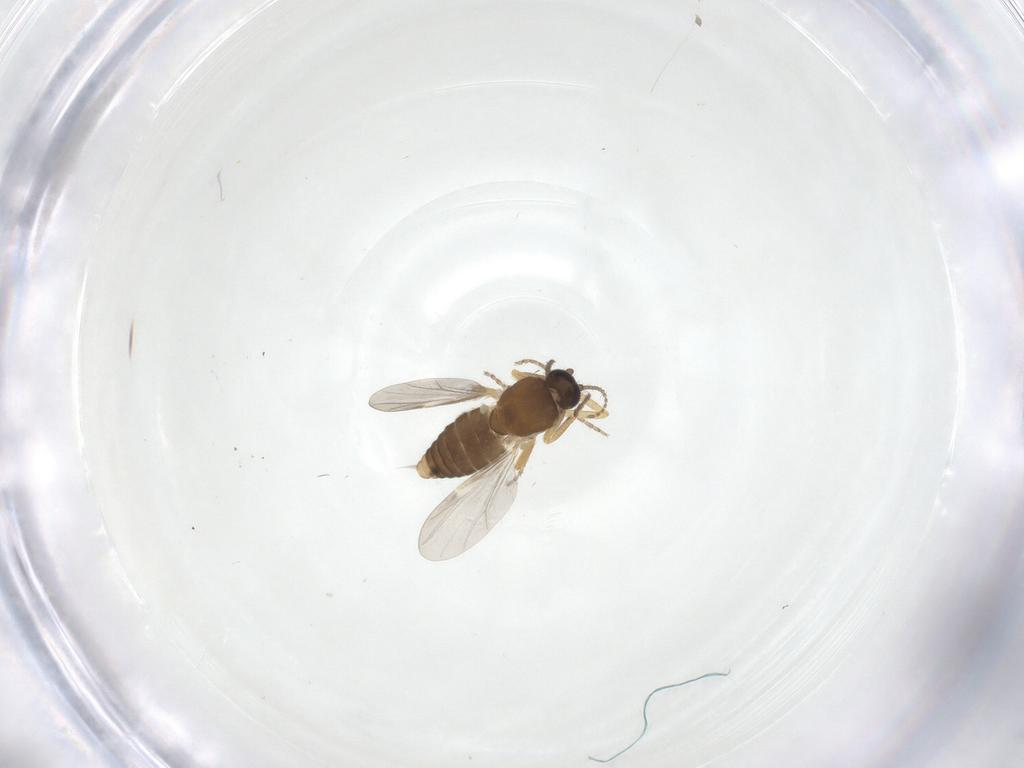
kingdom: Animalia
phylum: Arthropoda
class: Insecta
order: Diptera
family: Ceratopogonidae
